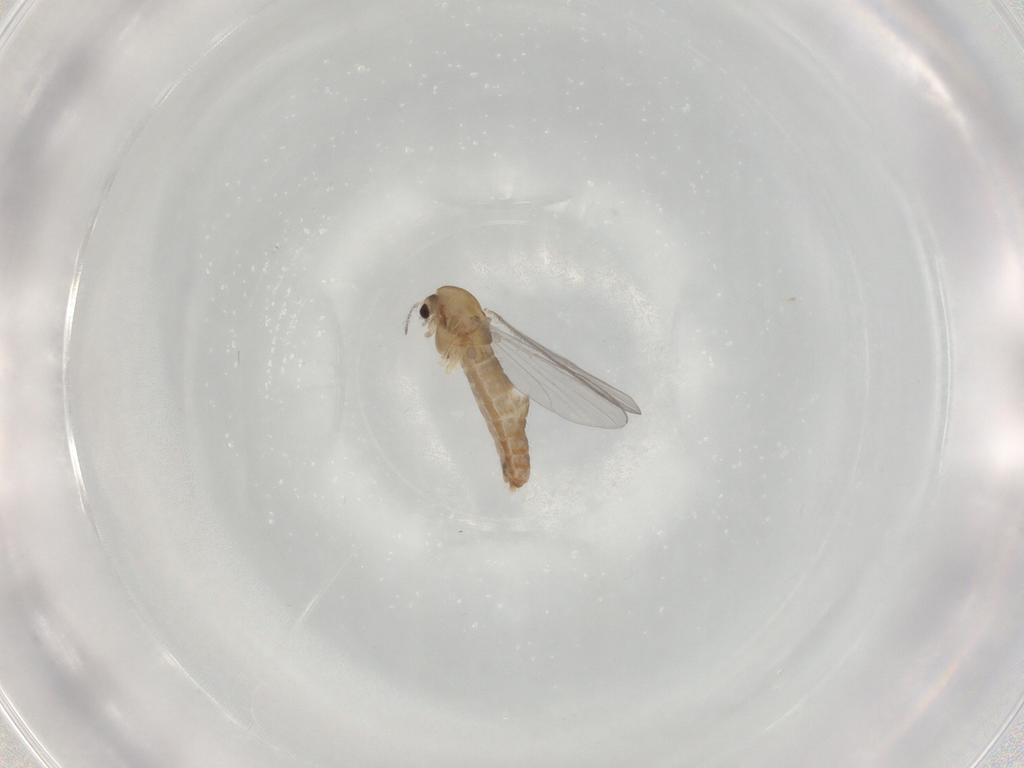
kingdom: Animalia
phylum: Arthropoda
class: Insecta
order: Diptera
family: Chironomidae
